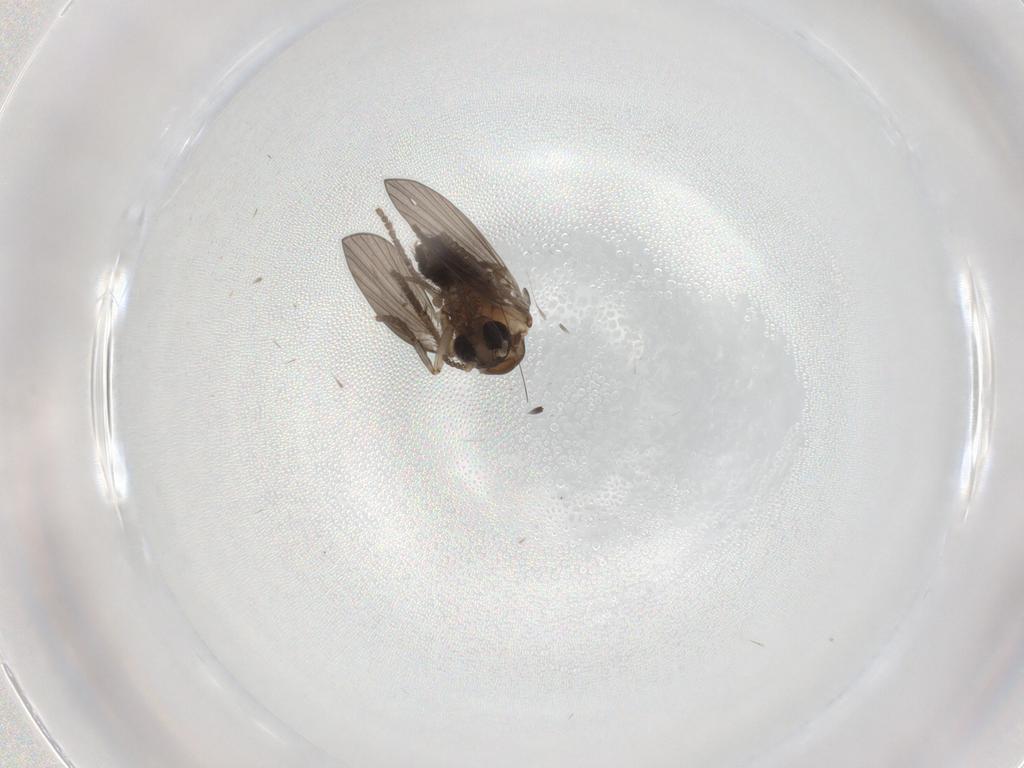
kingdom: Animalia
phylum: Arthropoda
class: Insecta
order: Diptera
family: Psychodidae
